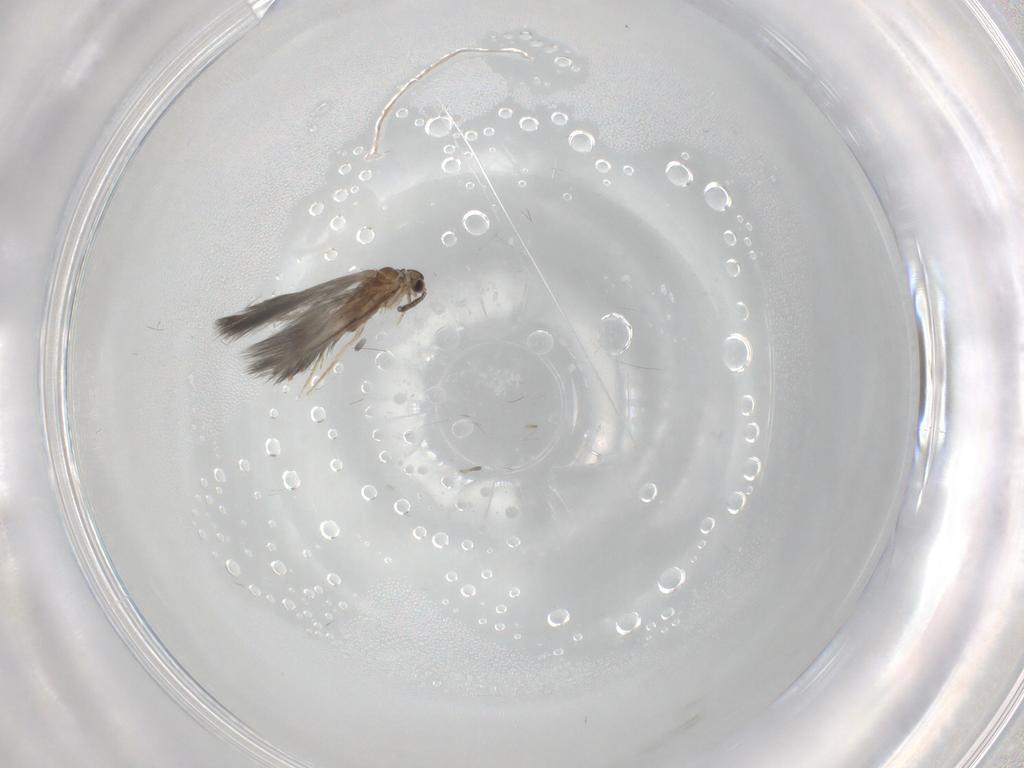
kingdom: Animalia
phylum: Arthropoda
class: Insecta
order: Trichoptera
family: Hydroptilidae
